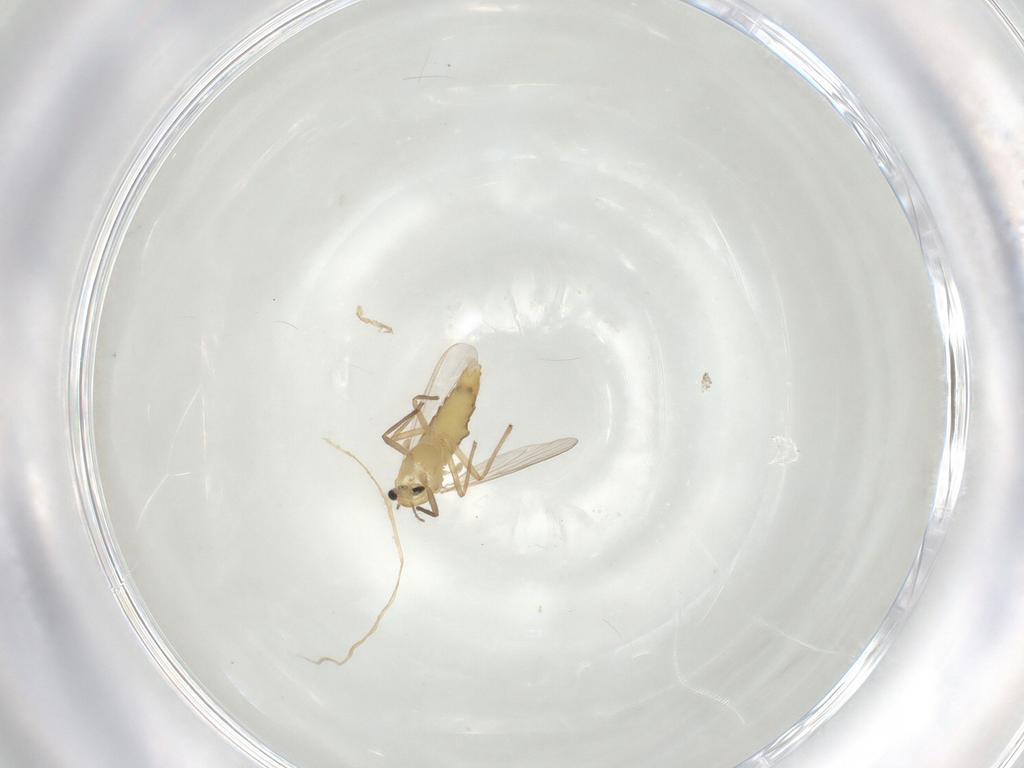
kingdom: Animalia
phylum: Arthropoda
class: Insecta
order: Diptera
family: Chironomidae
